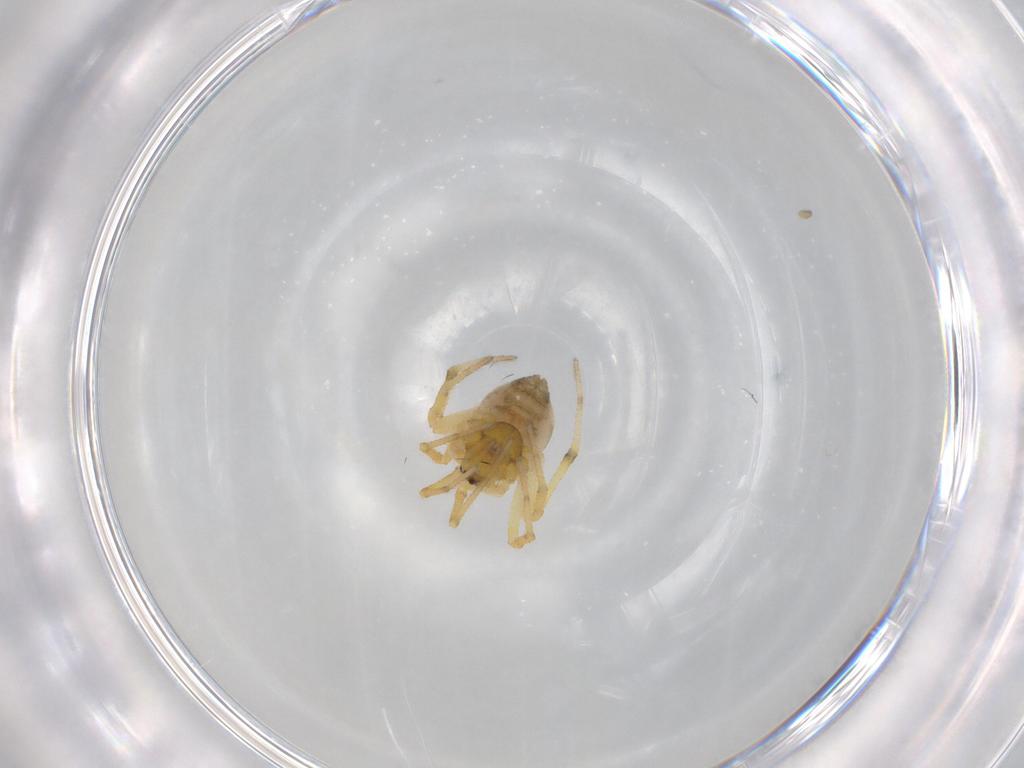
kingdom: Animalia
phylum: Arthropoda
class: Arachnida
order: Araneae
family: Theridiidae
